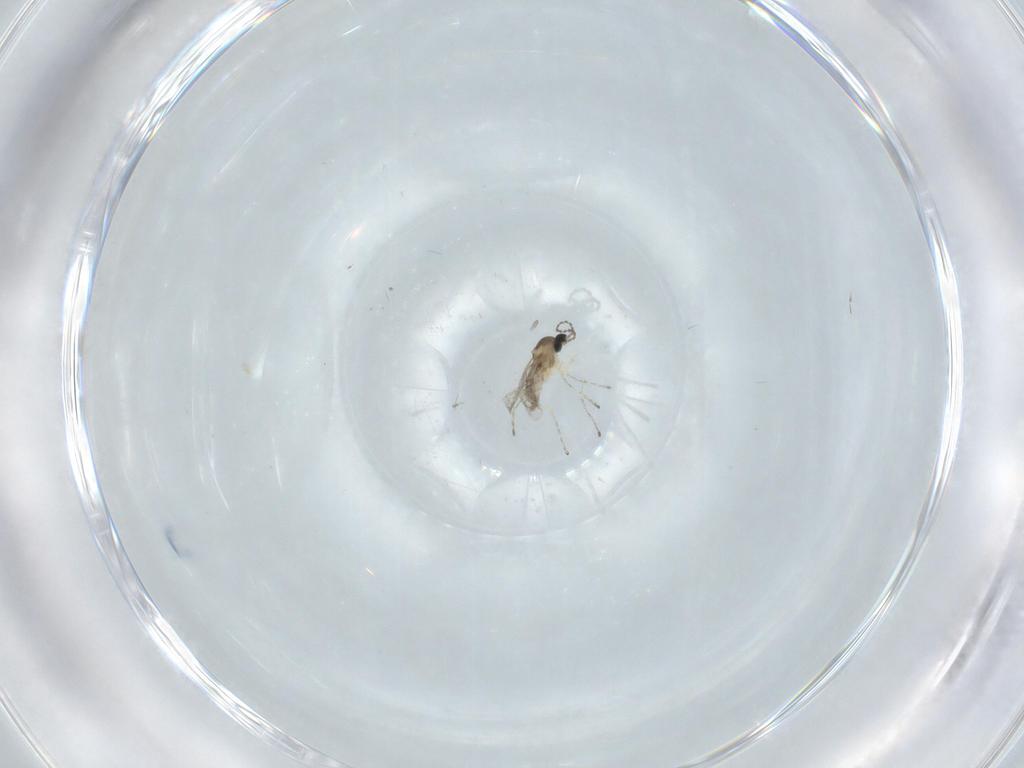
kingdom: Animalia
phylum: Arthropoda
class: Insecta
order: Diptera
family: Cecidomyiidae
